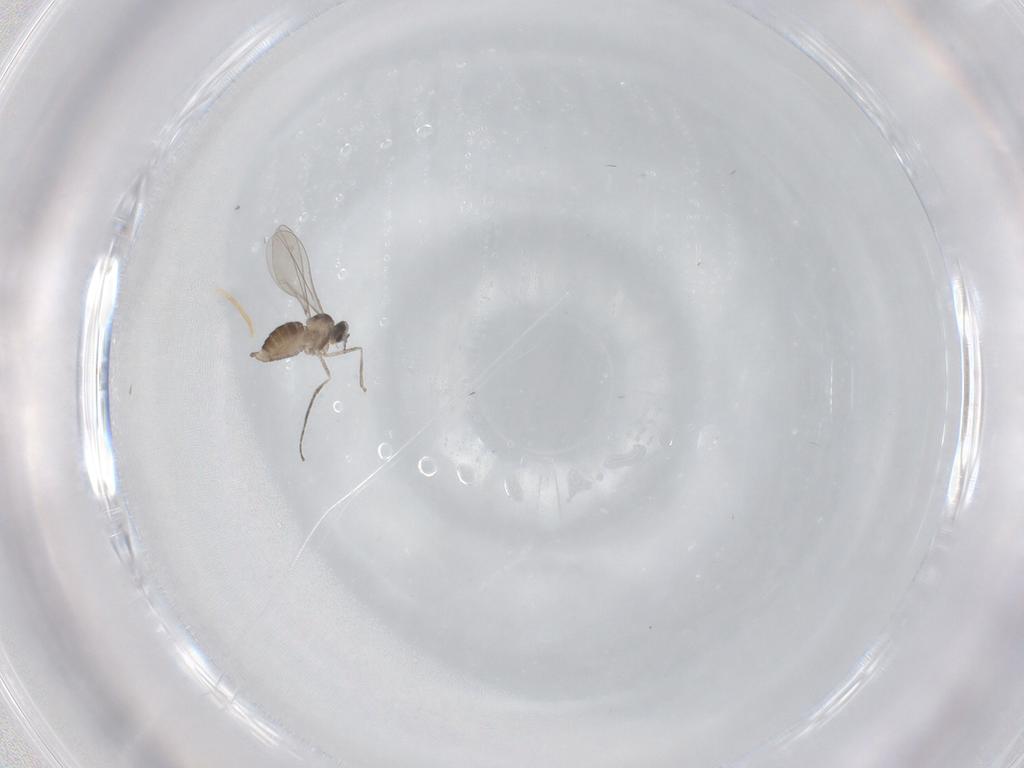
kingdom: Animalia
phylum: Arthropoda
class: Insecta
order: Diptera
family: Cecidomyiidae
